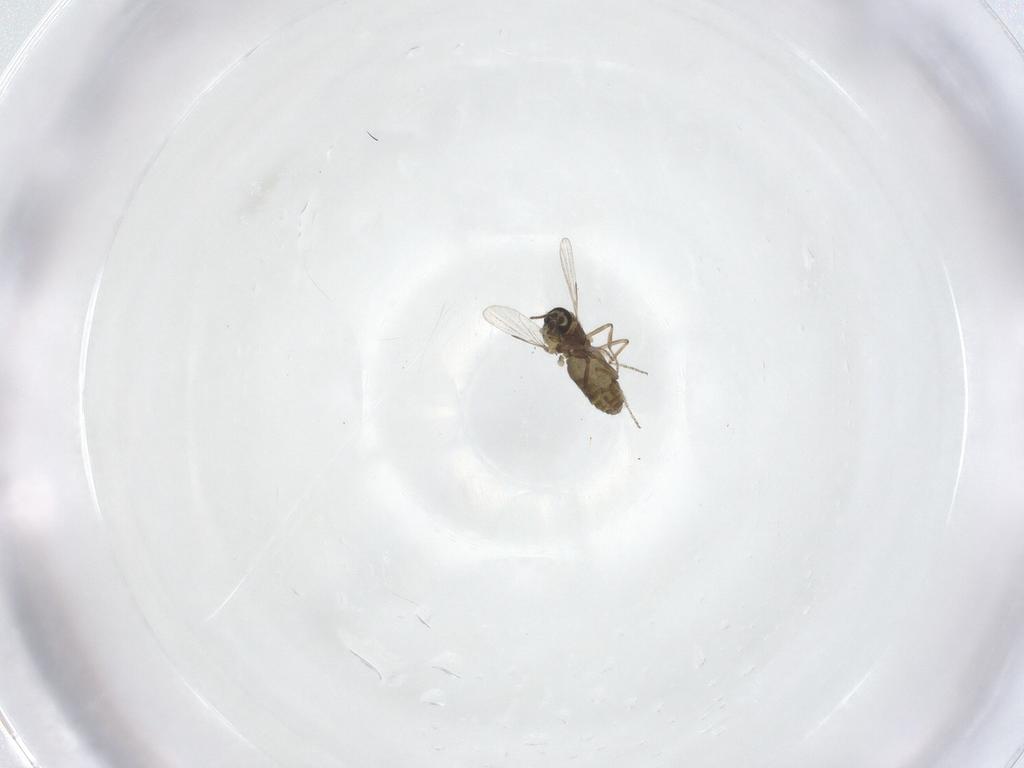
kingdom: Animalia
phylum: Arthropoda
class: Insecta
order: Diptera
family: Ceratopogonidae
